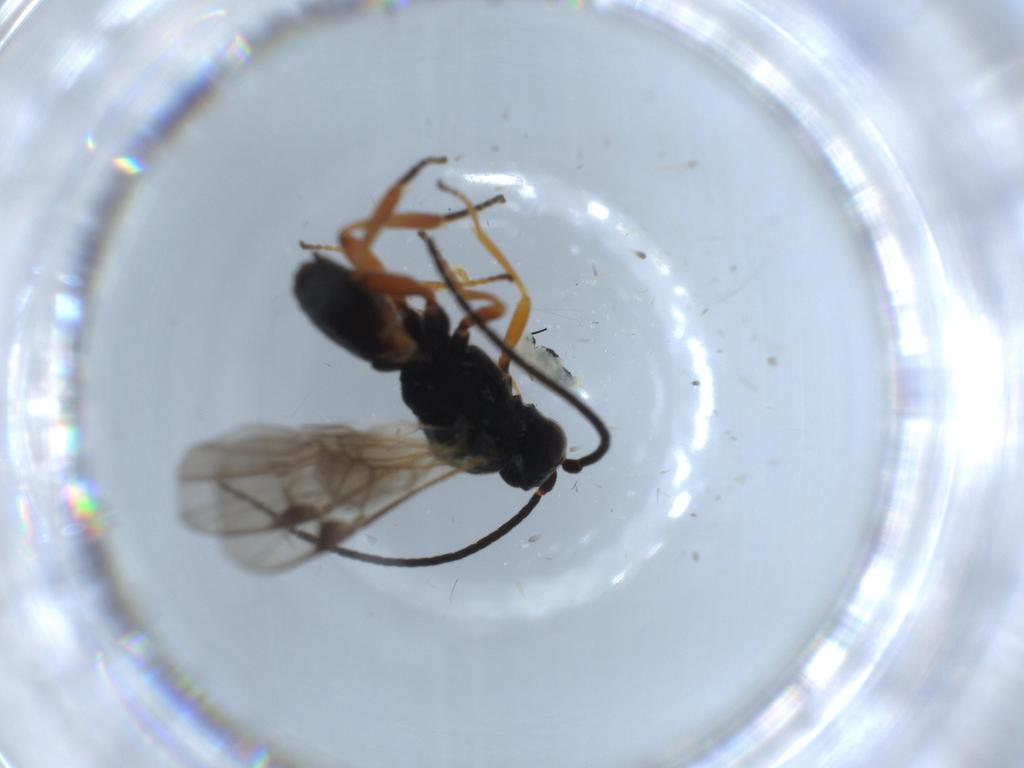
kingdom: Animalia
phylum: Arthropoda
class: Insecta
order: Hymenoptera
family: Braconidae
